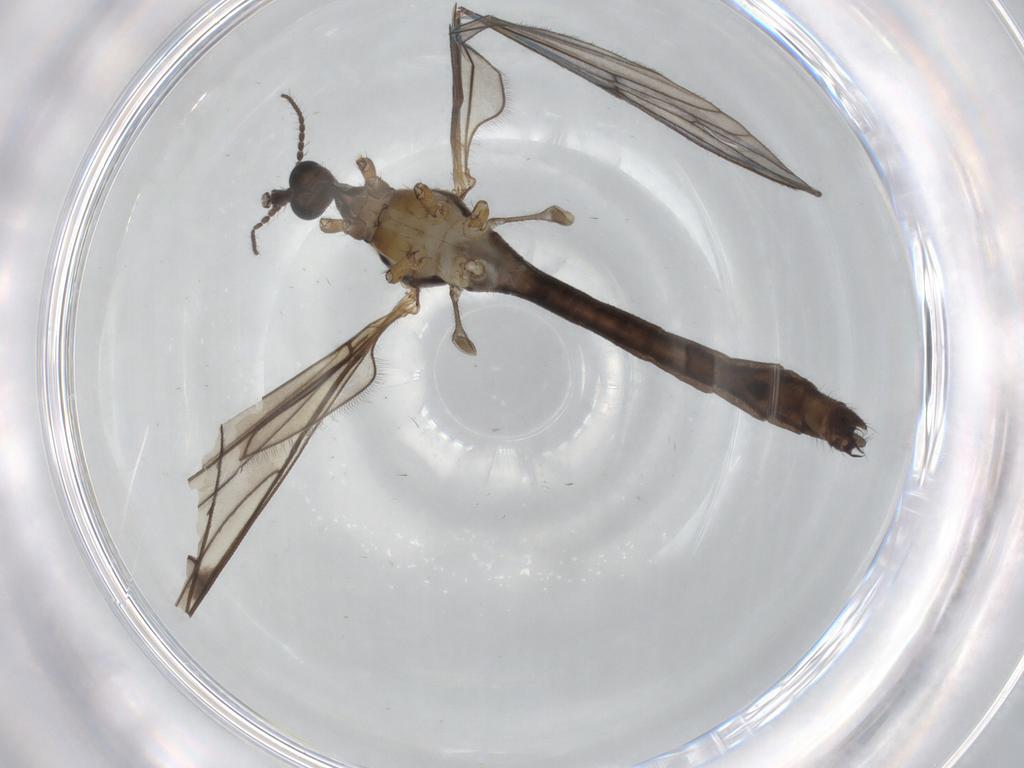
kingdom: Animalia
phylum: Arthropoda
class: Insecta
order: Diptera
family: Limoniidae
